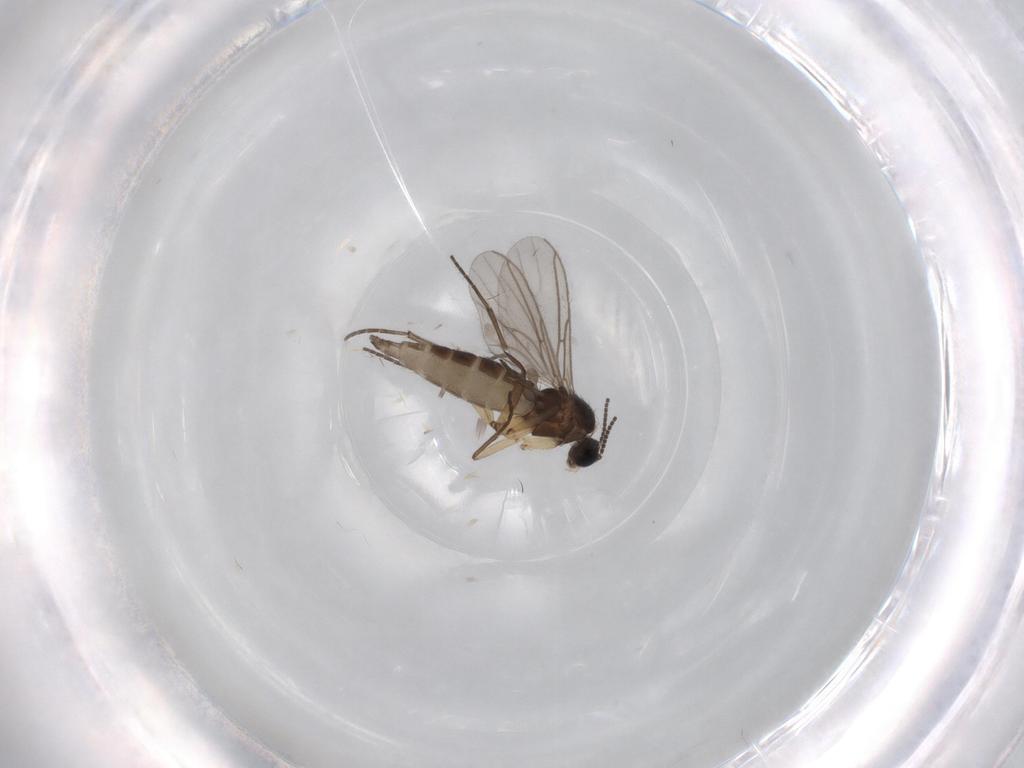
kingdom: Animalia
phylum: Arthropoda
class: Insecta
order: Diptera
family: Sciaridae
